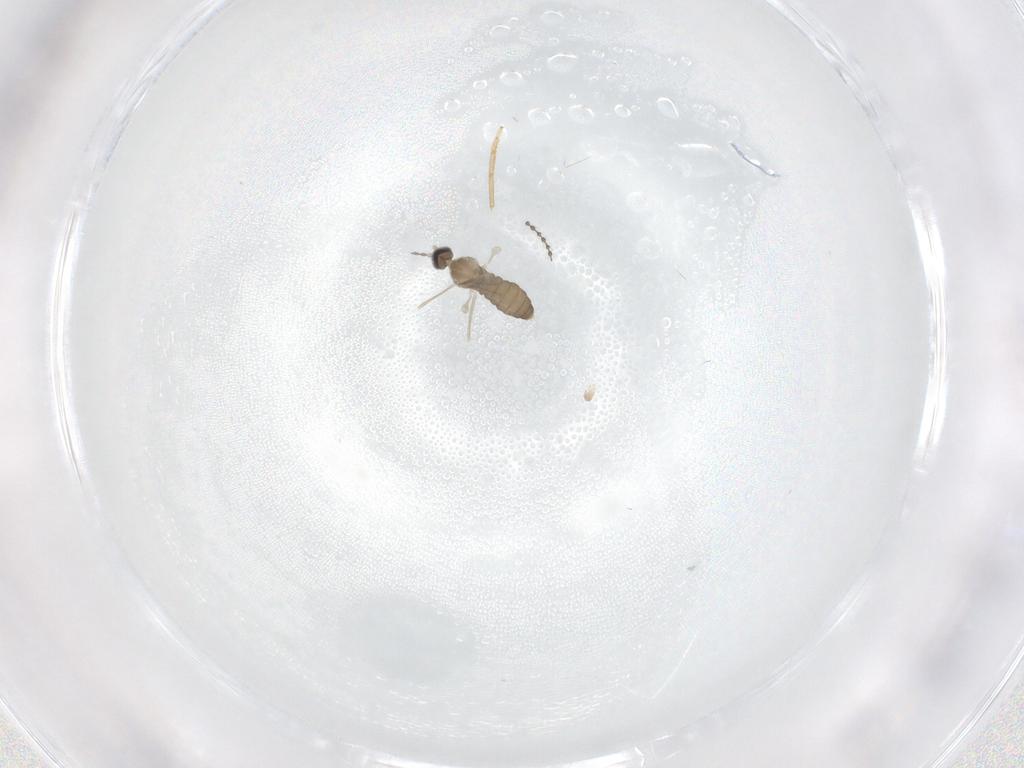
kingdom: Animalia
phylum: Arthropoda
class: Insecta
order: Diptera
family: Cecidomyiidae
